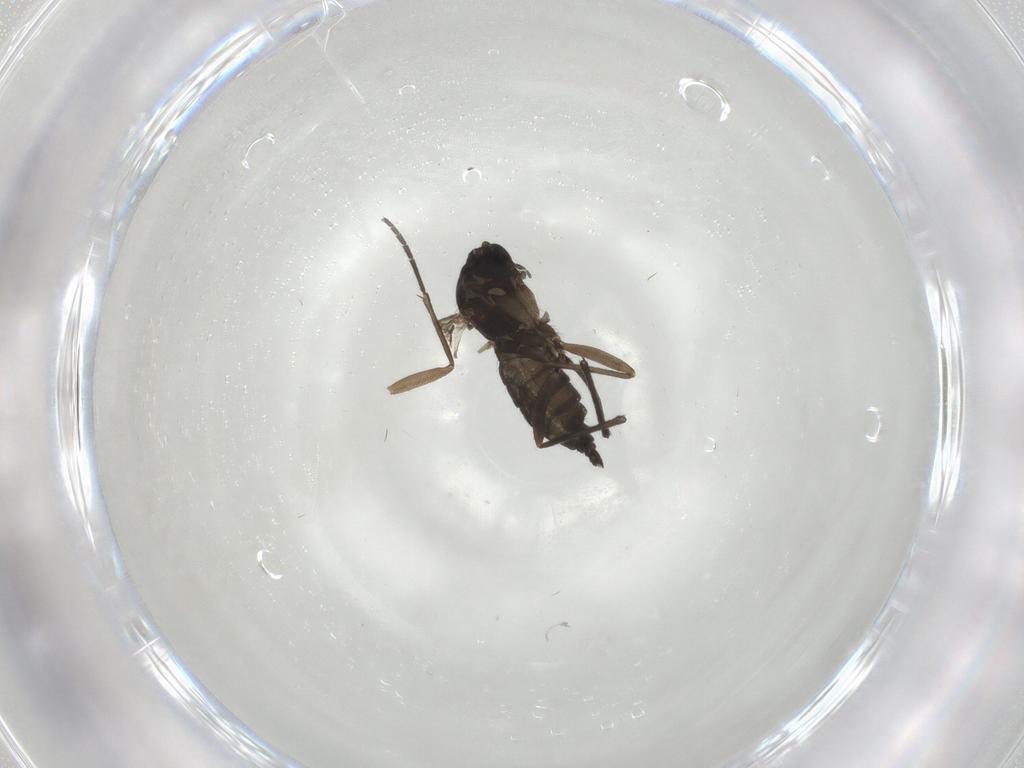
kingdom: Animalia
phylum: Arthropoda
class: Insecta
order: Diptera
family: Sciaridae
